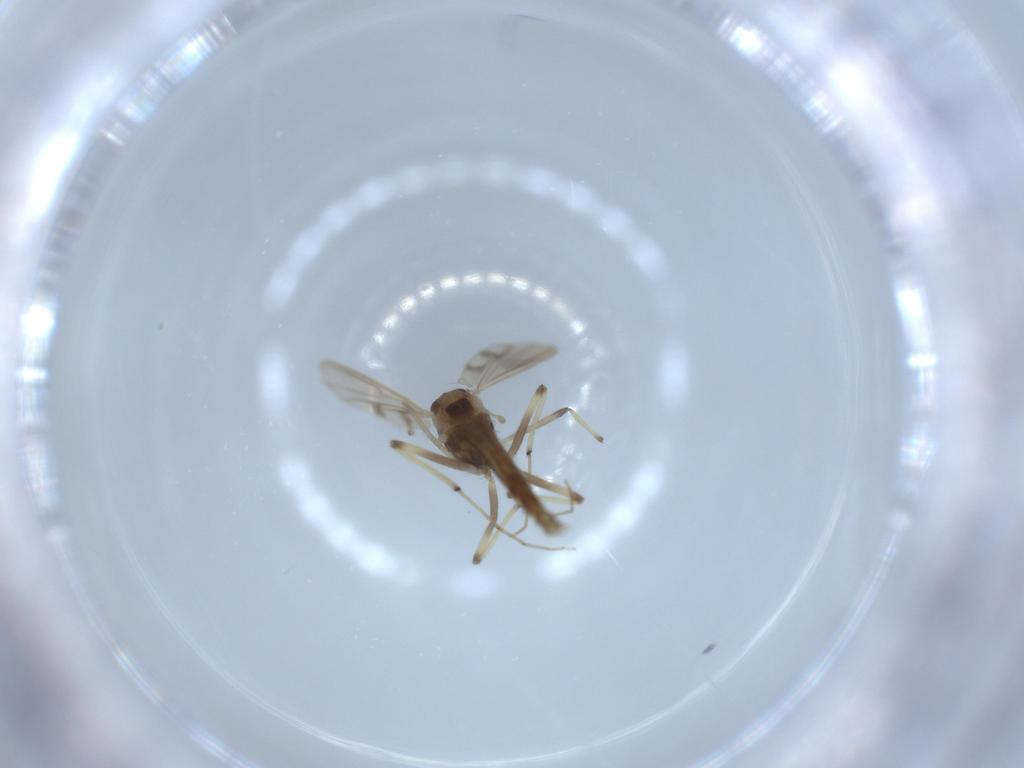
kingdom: Animalia
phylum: Arthropoda
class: Insecta
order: Diptera
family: Chironomidae
